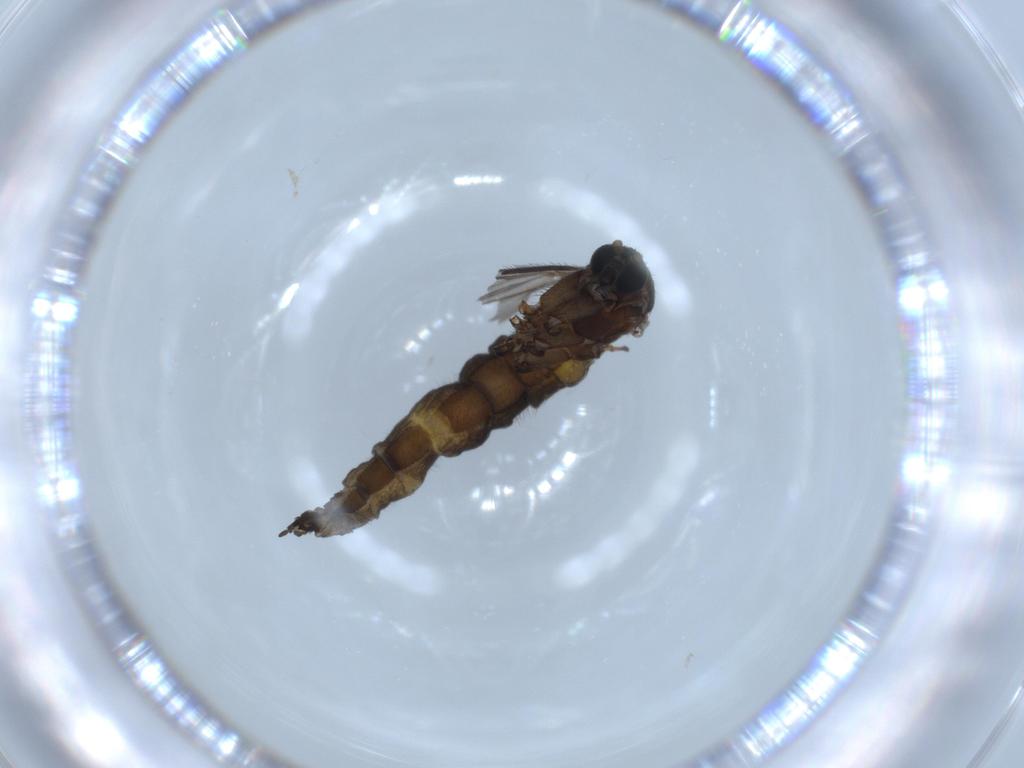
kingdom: Animalia
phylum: Arthropoda
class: Insecta
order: Diptera
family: Sciaridae
